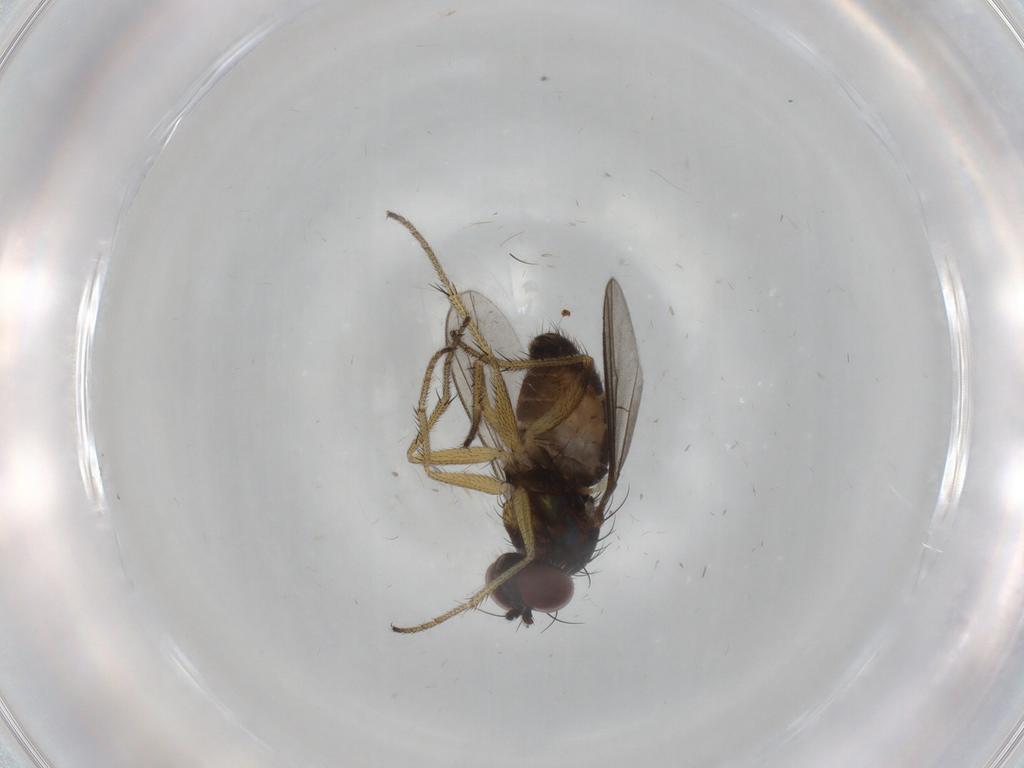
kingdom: Animalia
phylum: Arthropoda
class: Insecta
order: Diptera
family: Dolichopodidae
